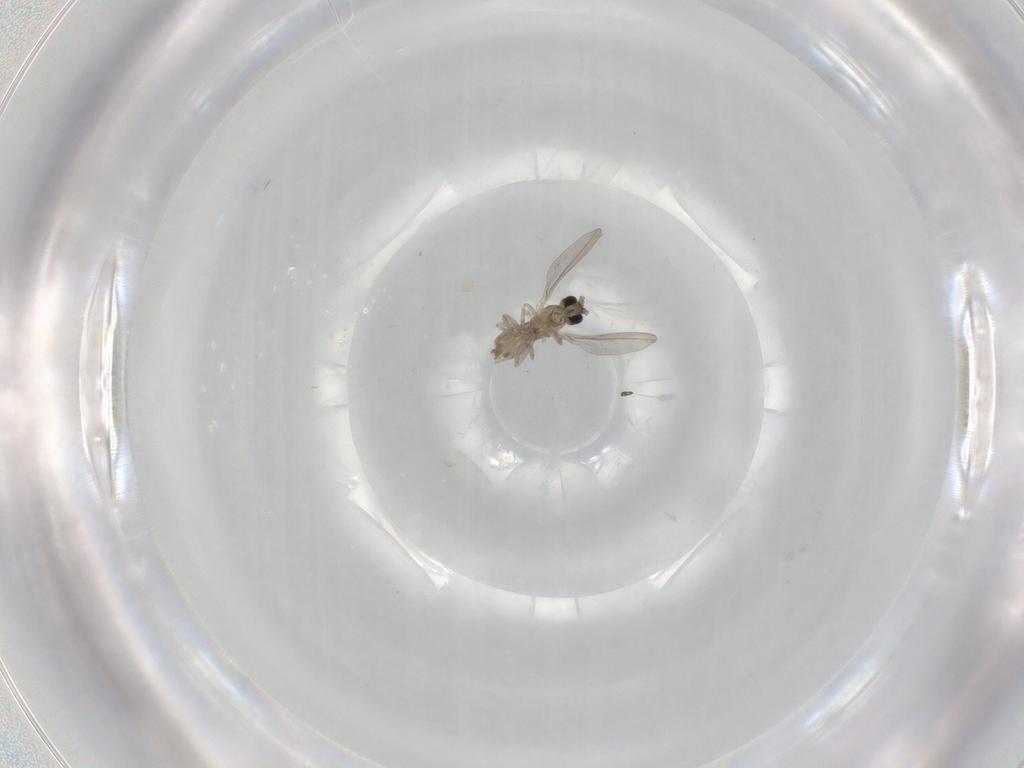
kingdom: Animalia
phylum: Arthropoda
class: Insecta
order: Diptera
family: Cecidomyiidae
